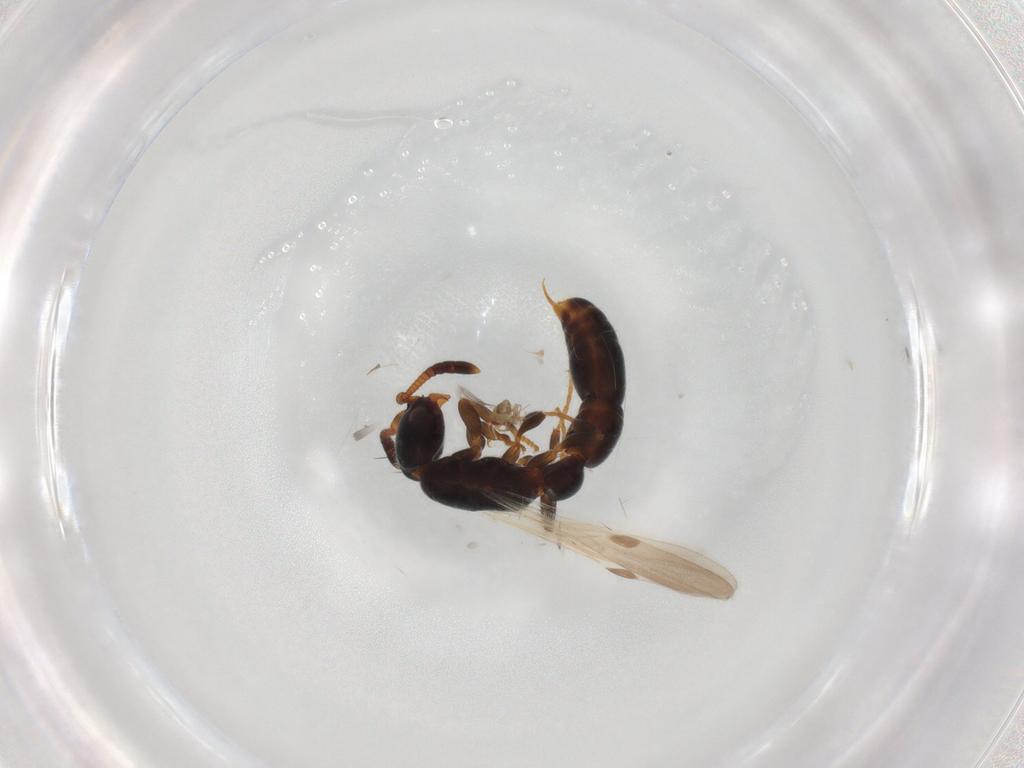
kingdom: Animalia
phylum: Arthropoda
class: Insecta
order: Hymenoptera
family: Formicidae
